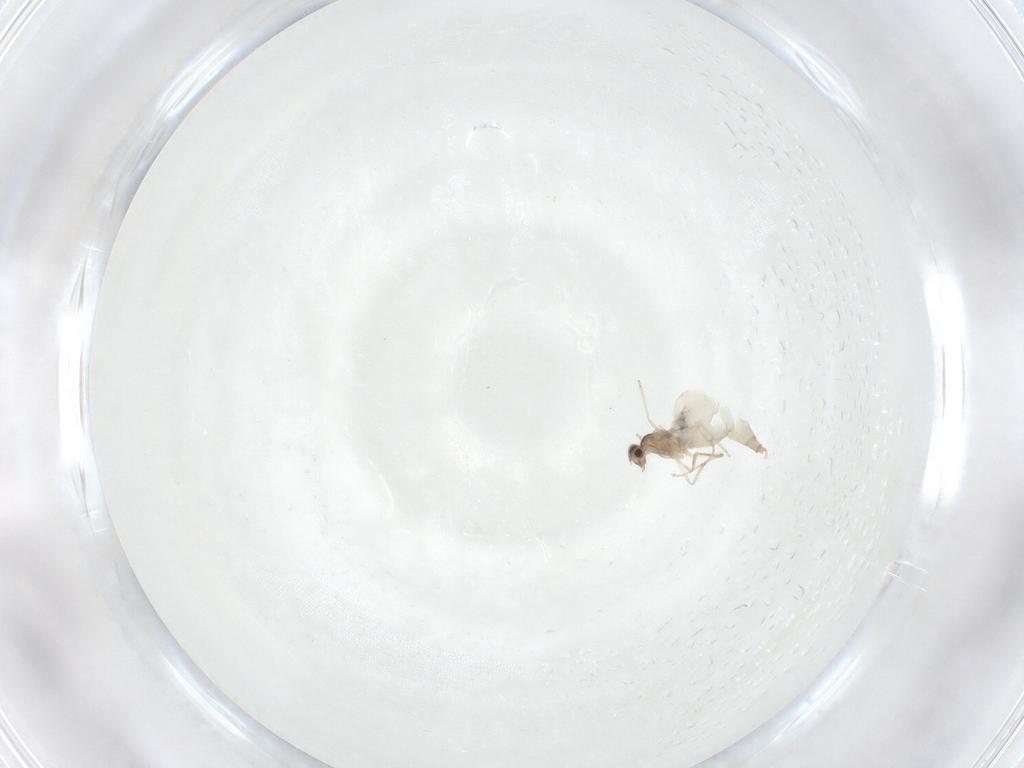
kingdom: Animalia
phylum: Arthropoda
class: Insecta
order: Diptera
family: Cecidomyiidae
